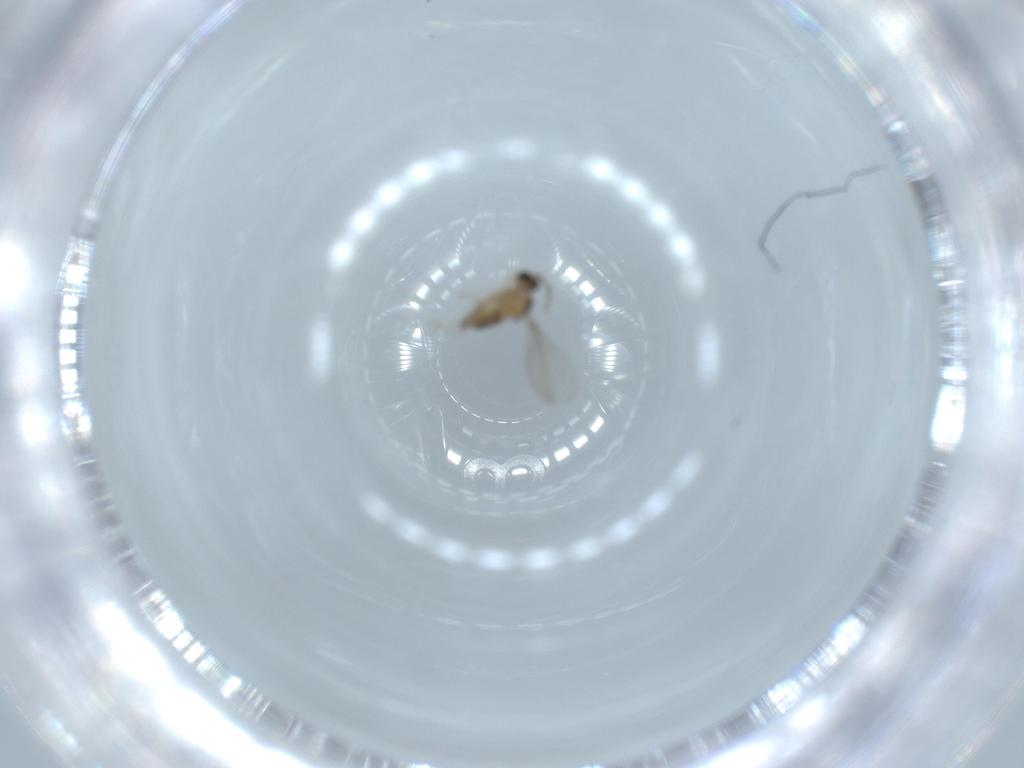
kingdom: Animalia
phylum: Arthropoda
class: Insecta
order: Diptera
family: Cecidomyiidae
